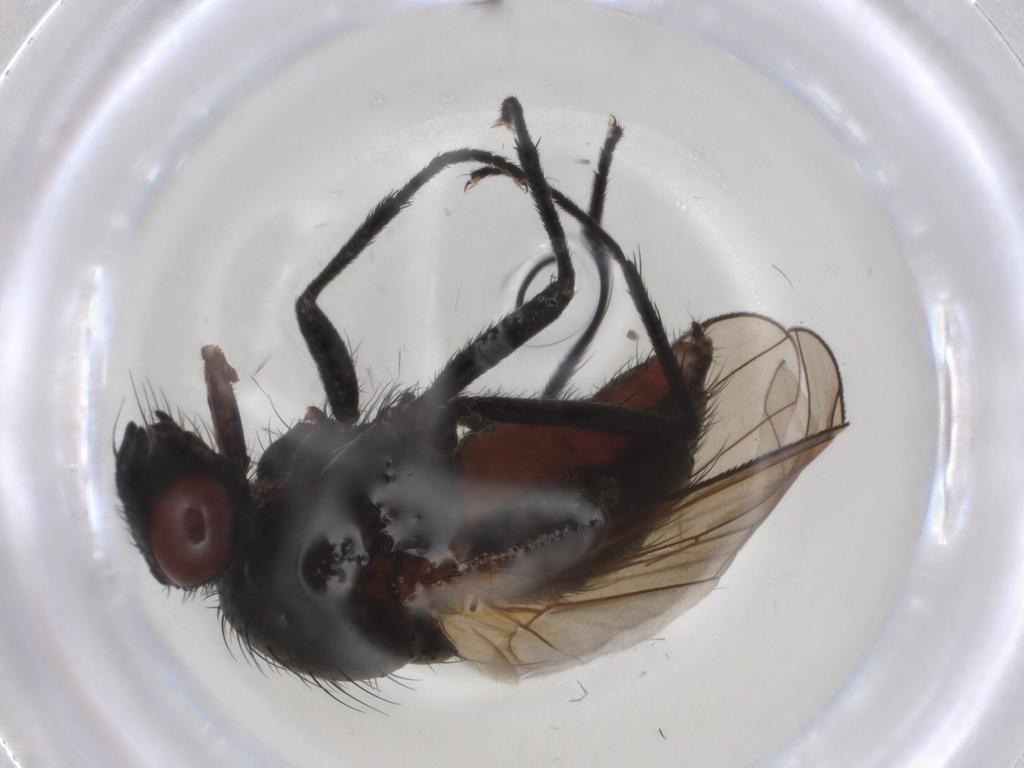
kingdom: Animalia
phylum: Arthropoda
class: Insecta
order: Diptera
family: Anthomyiidae
